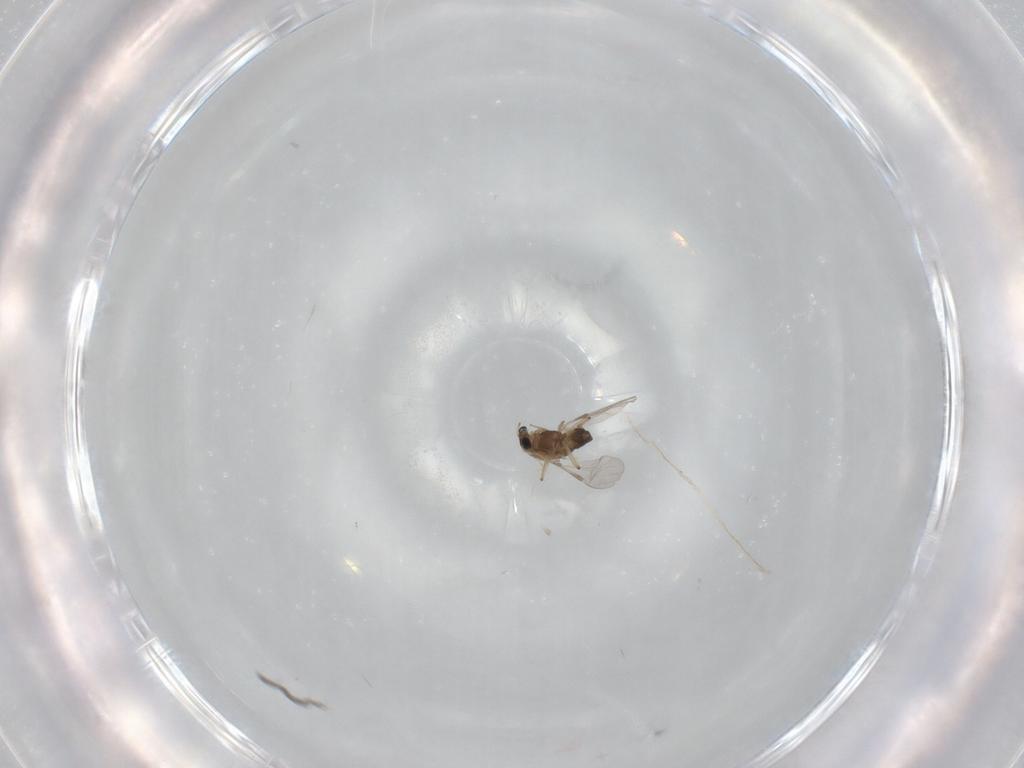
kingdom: Animalia
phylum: Arthropoda
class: Insecta
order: Diptera
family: Chironomidae
